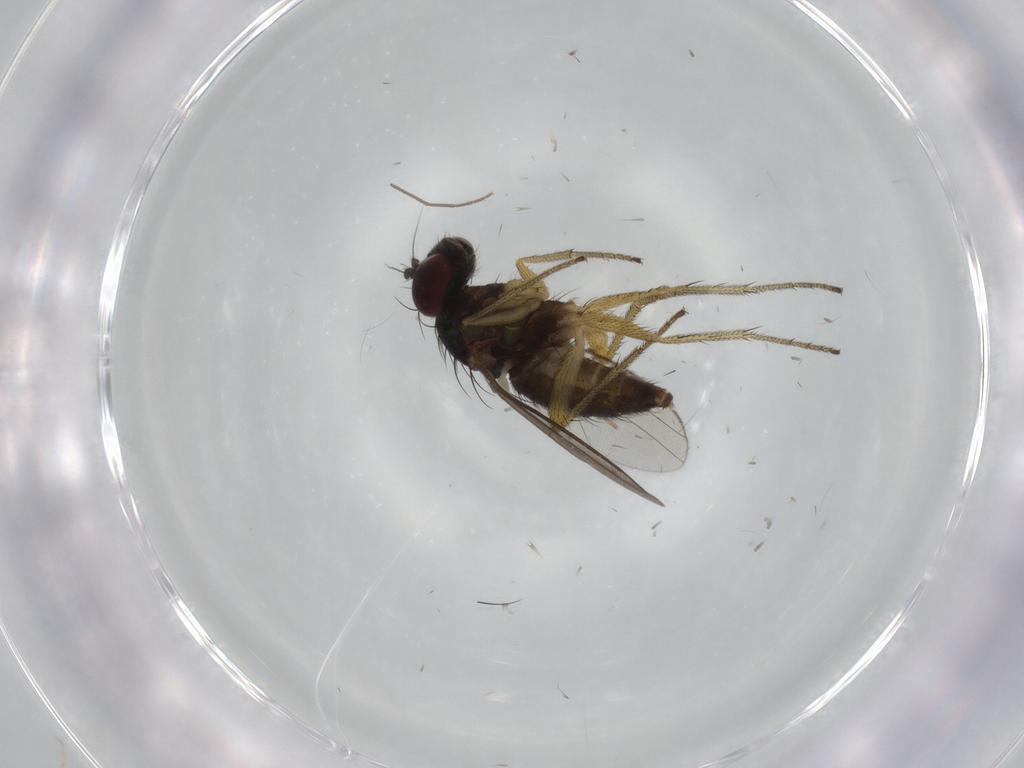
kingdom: Animalia
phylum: Arthropoda
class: Insecta
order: Diptera
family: Dolichopodidae
